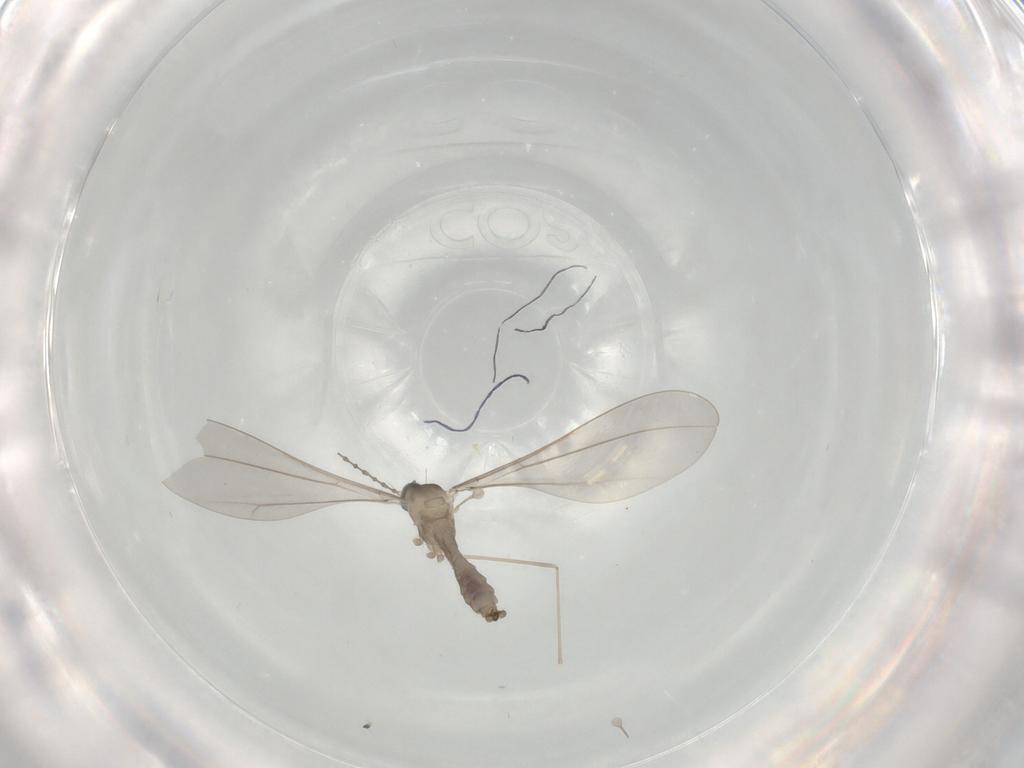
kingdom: Animalia
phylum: Arthropoda
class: Insecta
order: Diptera
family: Cecidomyiidae
